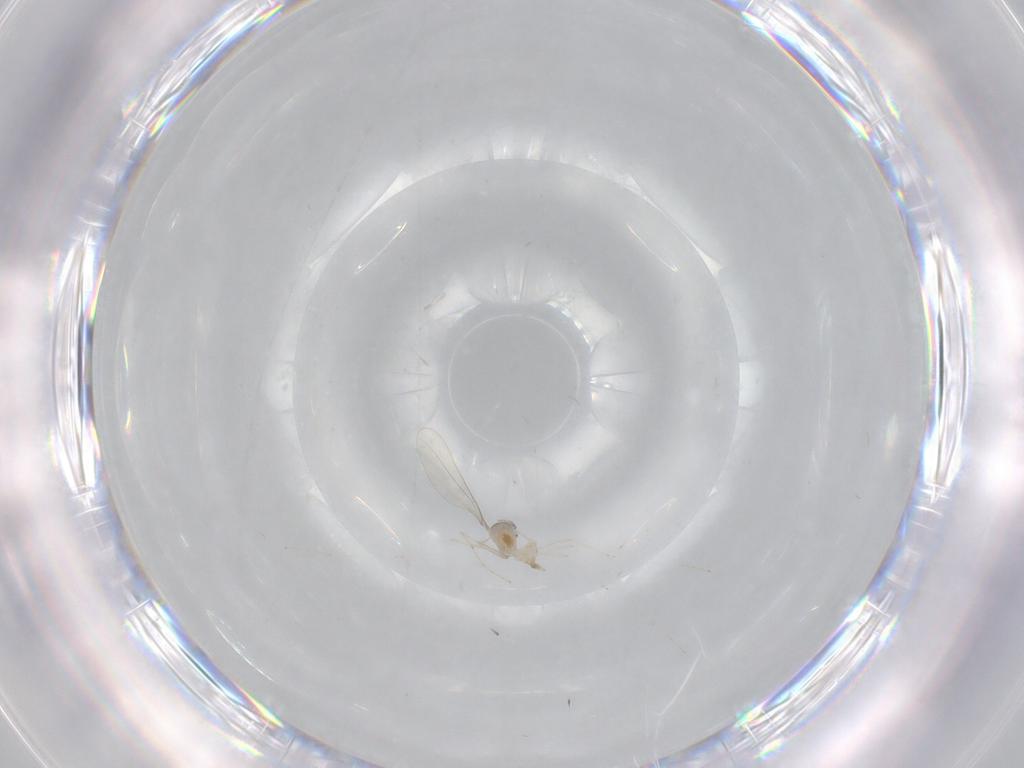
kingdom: Animalia
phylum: Arthropoda
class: Insecta
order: Diptera
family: Cecidomyiidae
